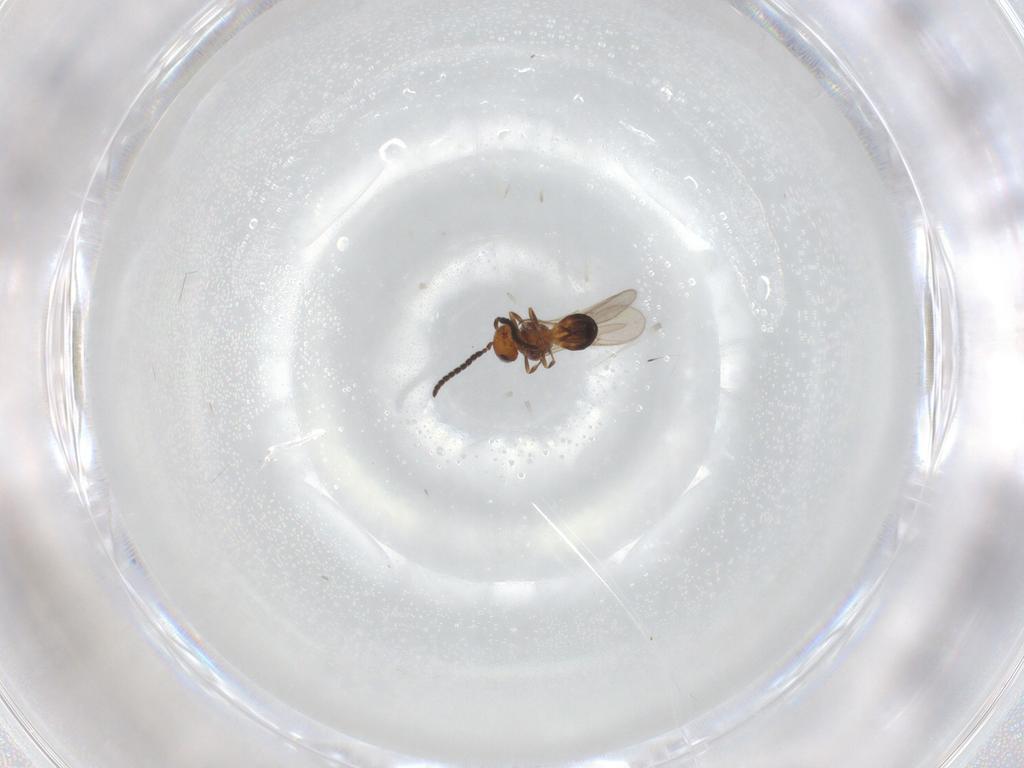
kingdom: Animalia
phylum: Arthropoda
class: Insecta
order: Hymenoptera
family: Scelionidae
